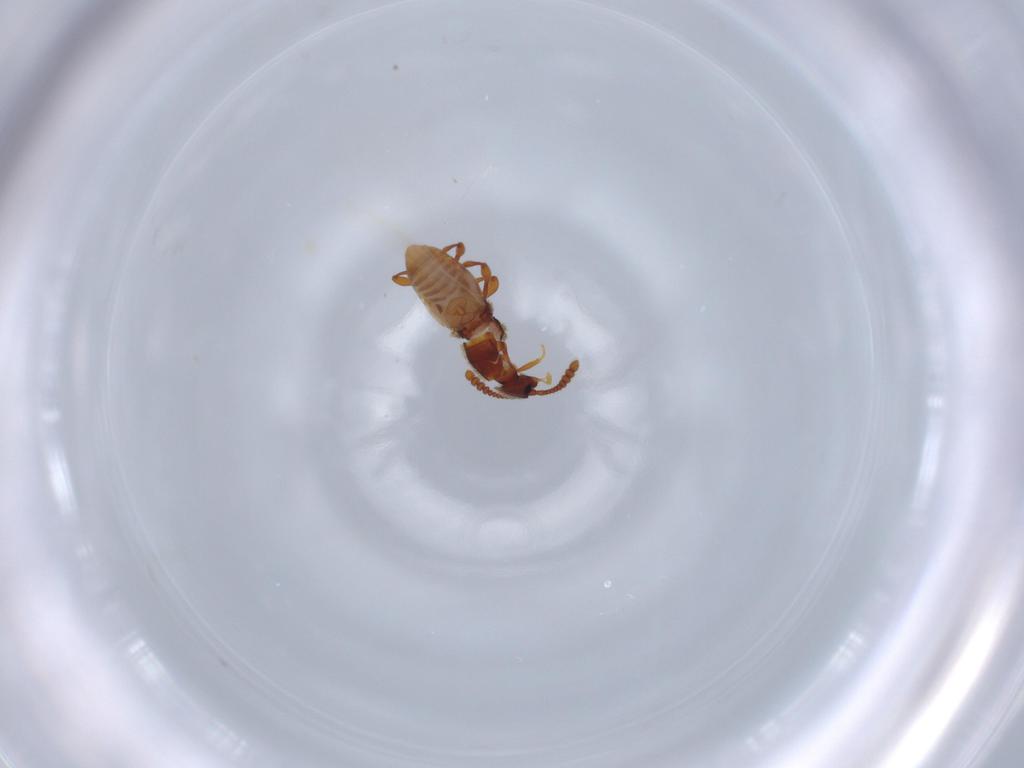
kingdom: Animalia
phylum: Arthropoda
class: Insecta
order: Coleoptera
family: Staphylinidae
